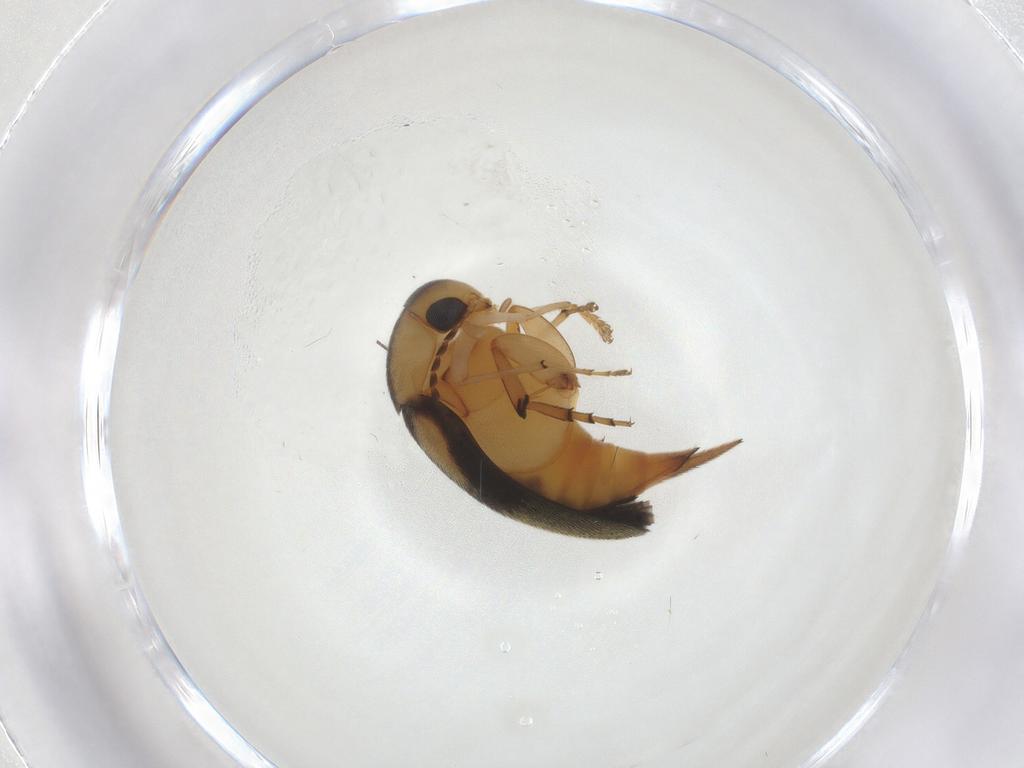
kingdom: Animalia
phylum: Arthropoda
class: Insecta
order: Coleoptera
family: Mordellidae
